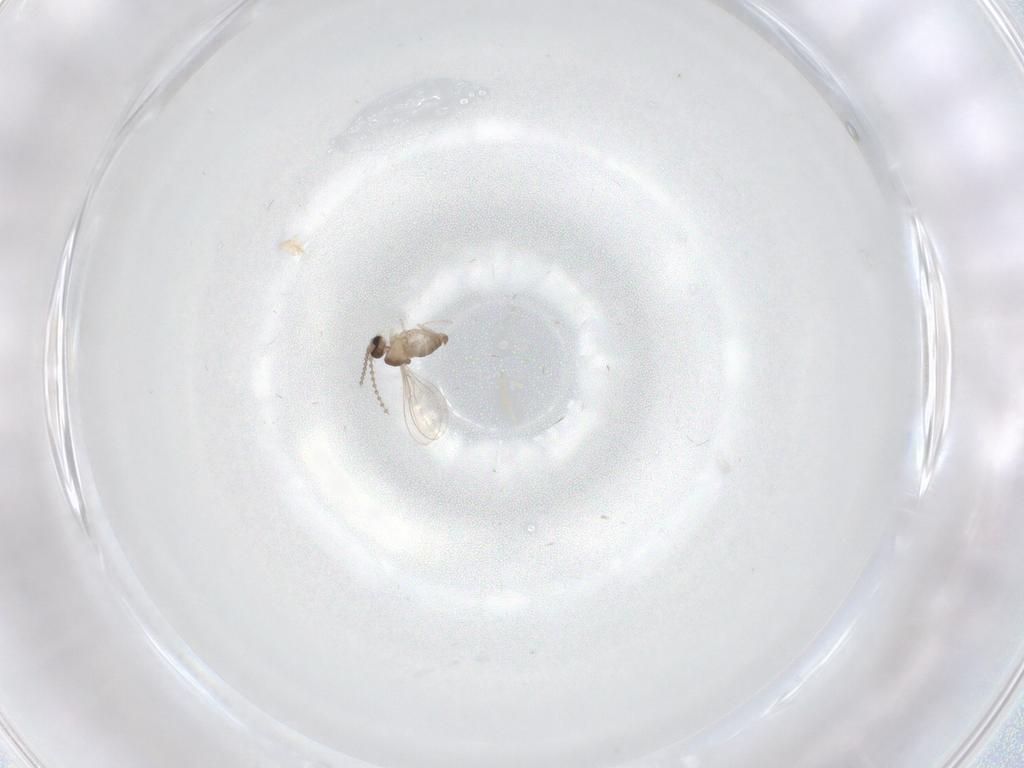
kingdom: Animalia
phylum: Arthropoda
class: Insecta
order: Diptera
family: Cecidomyiidae
